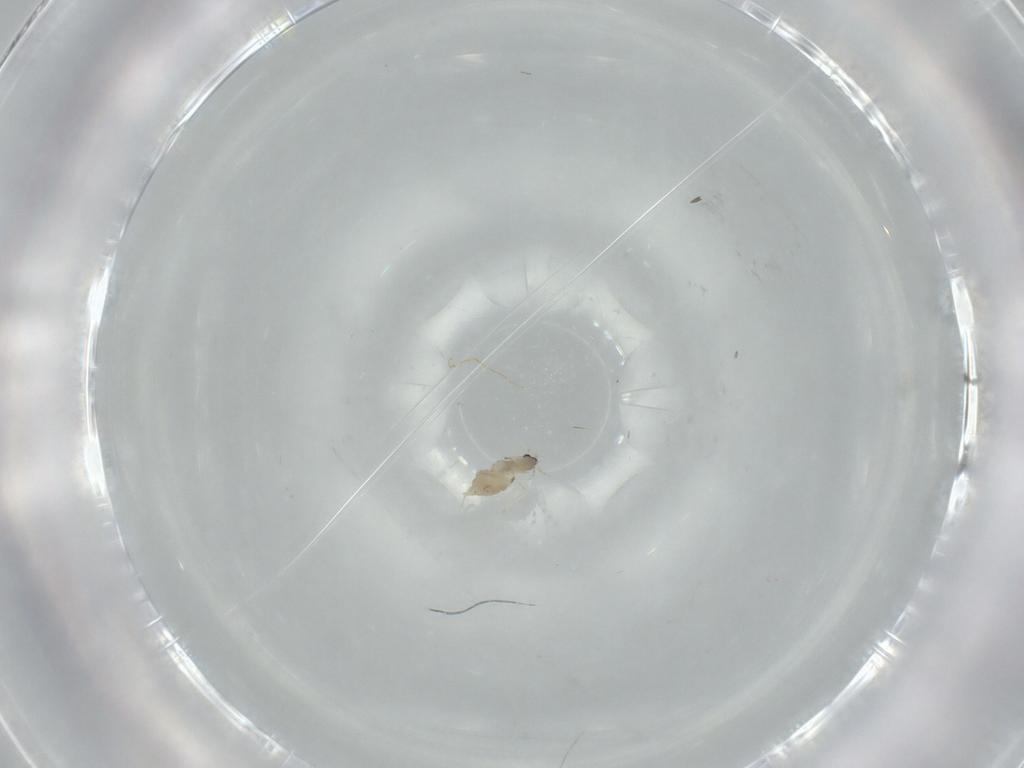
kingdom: Animalia
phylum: Arthropoda
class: Insecta
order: Diptera
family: Cecidomyiidae
